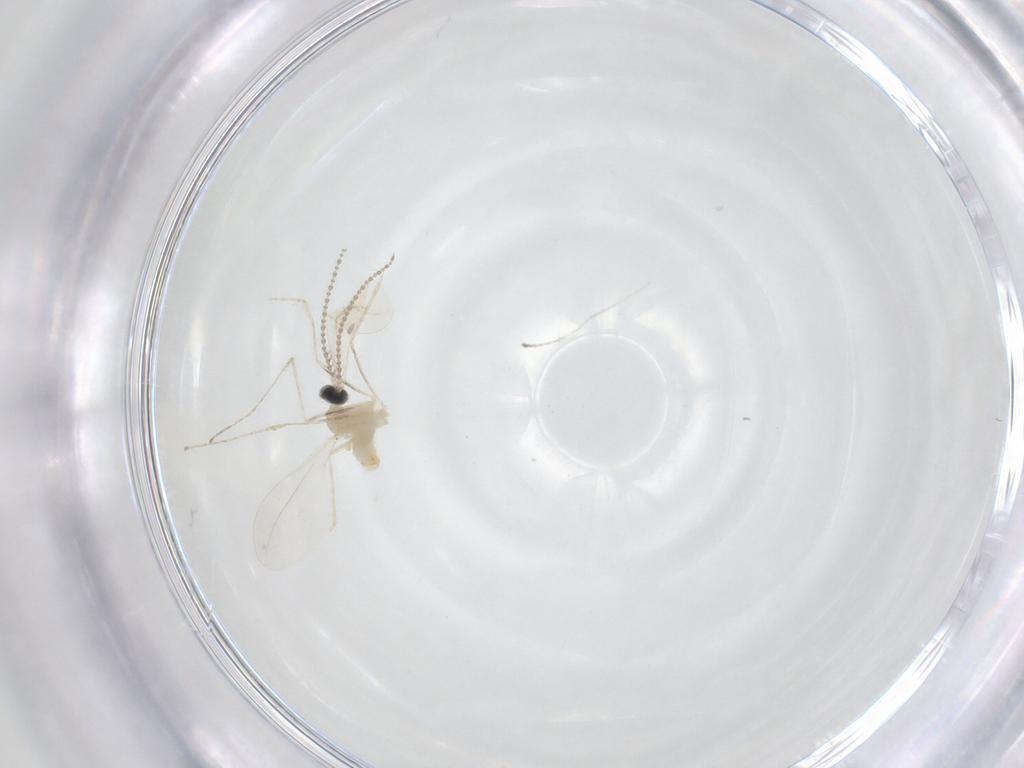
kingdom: Animalia
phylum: Arthropoda
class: Insecta
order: Diptera
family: Cecidomyiidae
